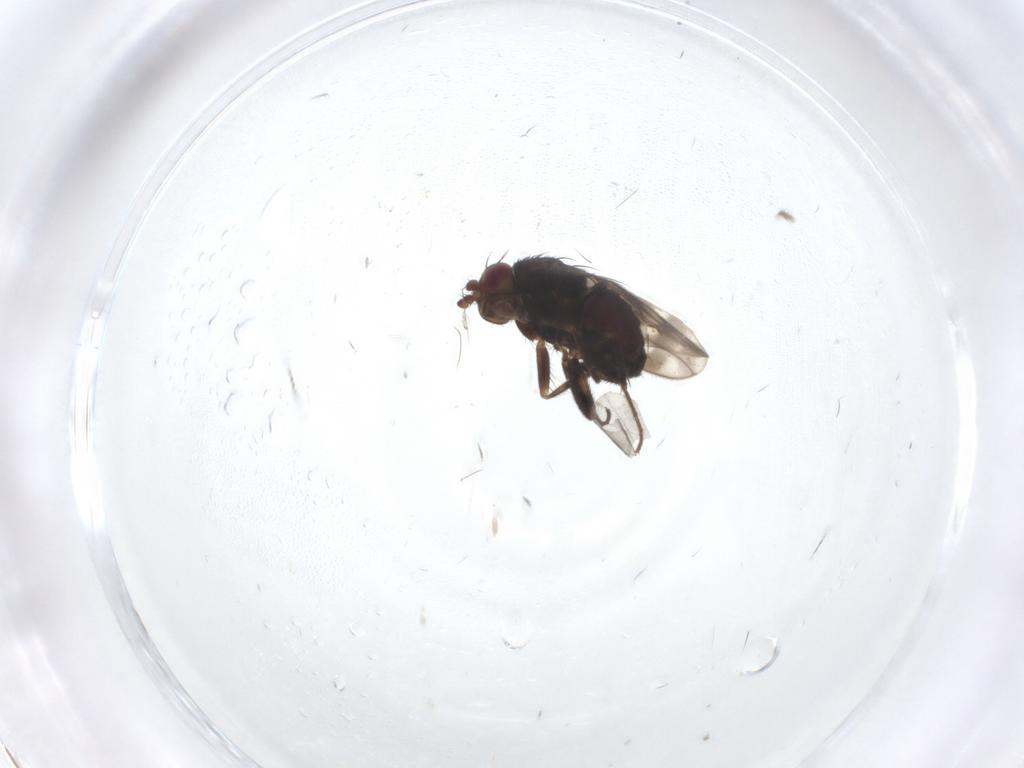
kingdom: Animalia
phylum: Arthropoda
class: Insecta
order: Diptera
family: Sphaeroceridae
